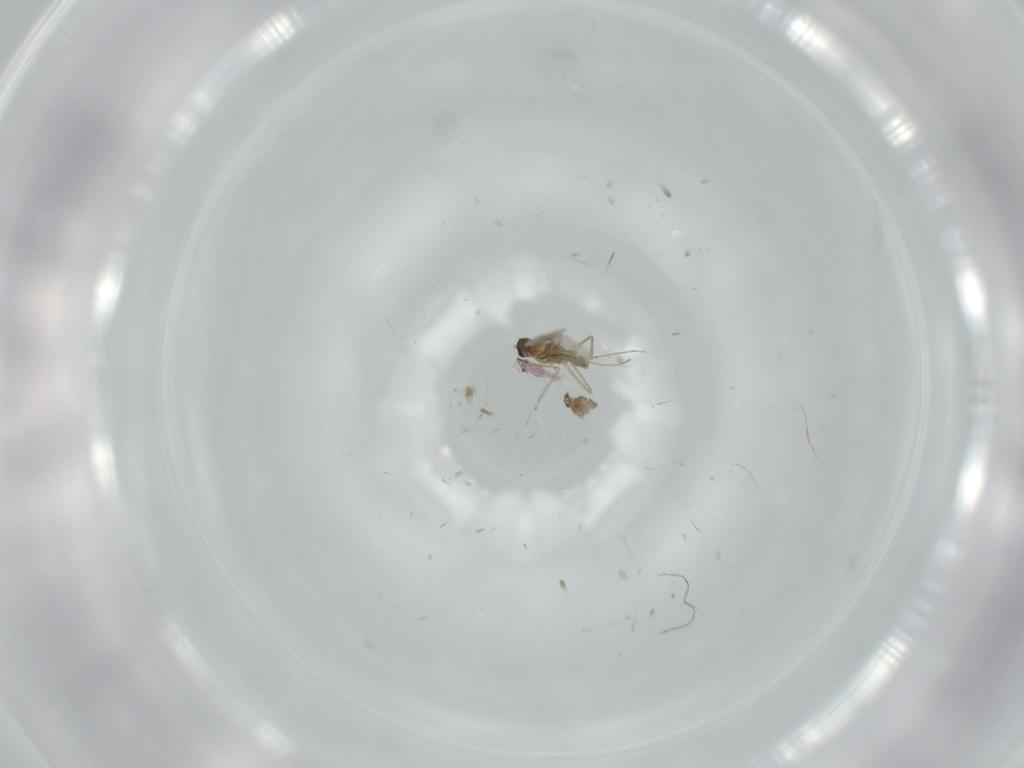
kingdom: Animalia
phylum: Arthropoda
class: Insecta
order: Diptera
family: Cecidomyiidae
